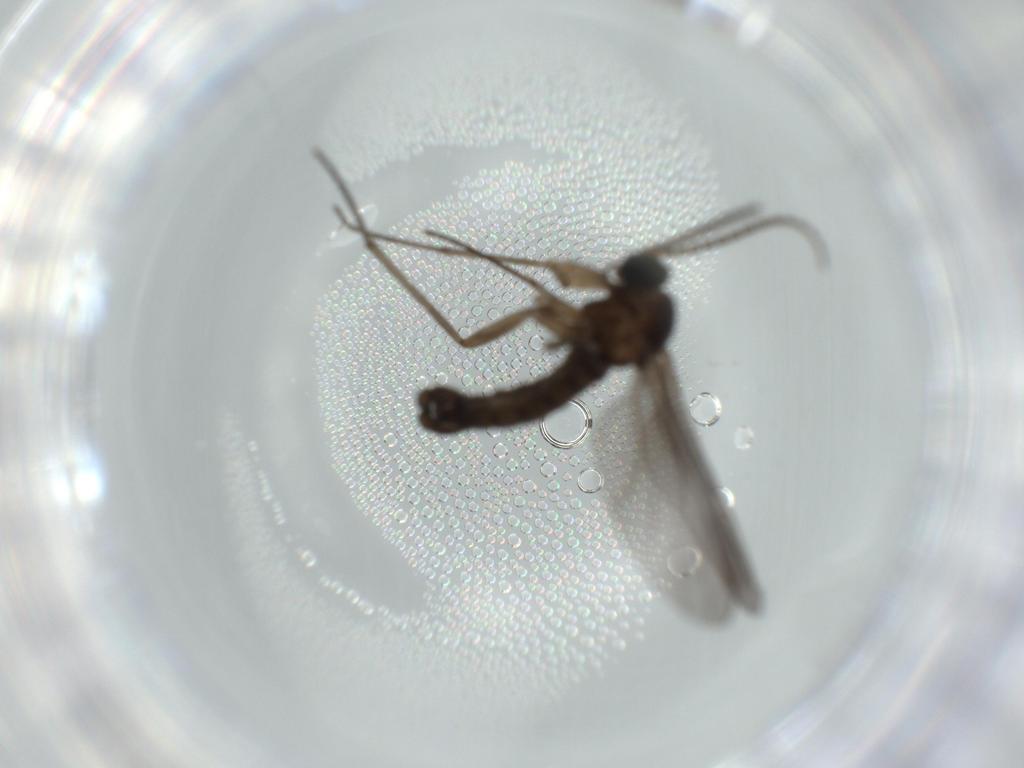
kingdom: Animalia
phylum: Arthropoda
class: Insecta
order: Diptera
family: Sciaridae
